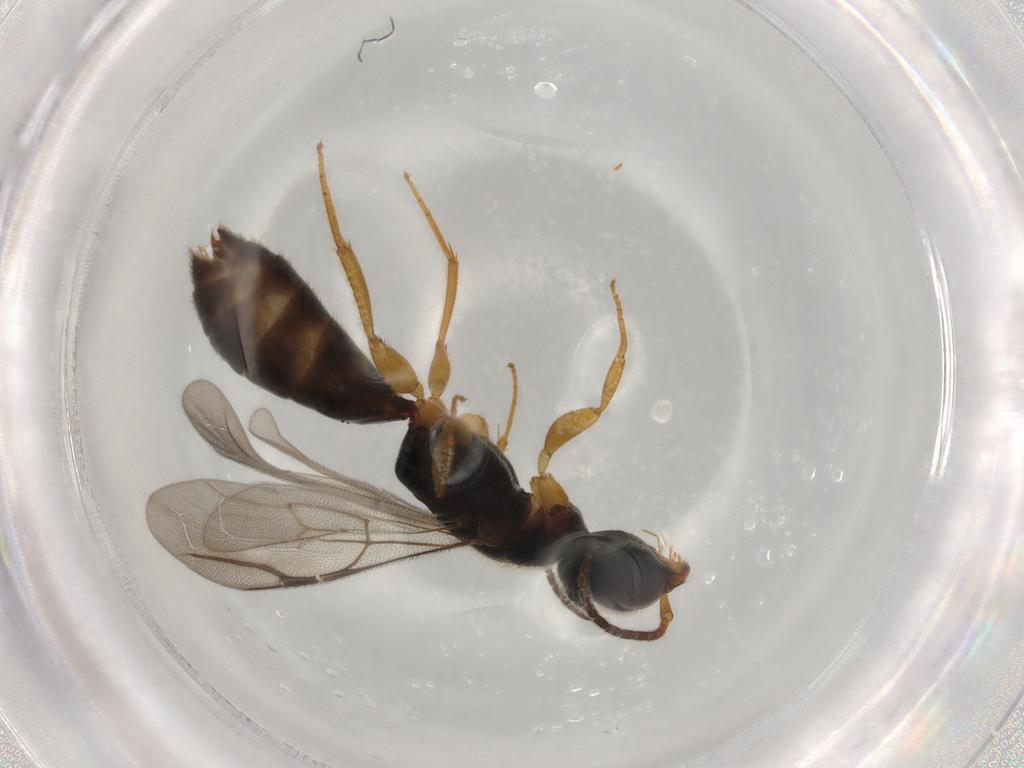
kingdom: Animalia
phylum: Arthropoda
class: Insecta
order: Hymenoptera
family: Bethylidae
